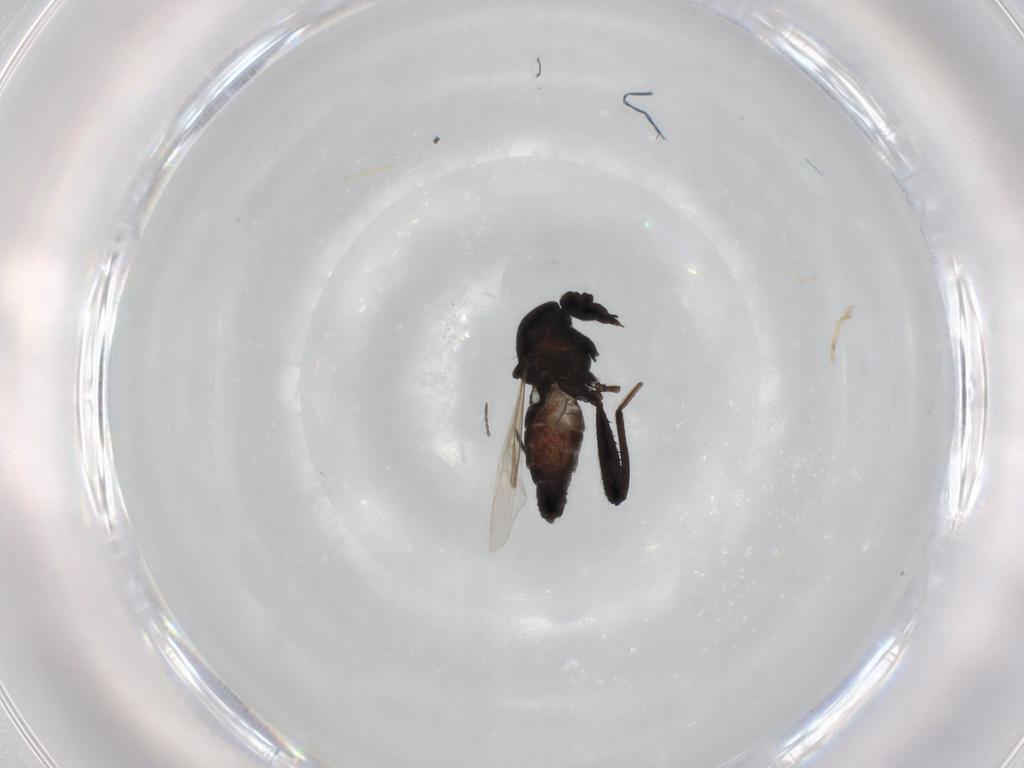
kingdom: Animalia
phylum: Arthropoda
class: Insecta
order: Diptera
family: Ceratopogonidae
